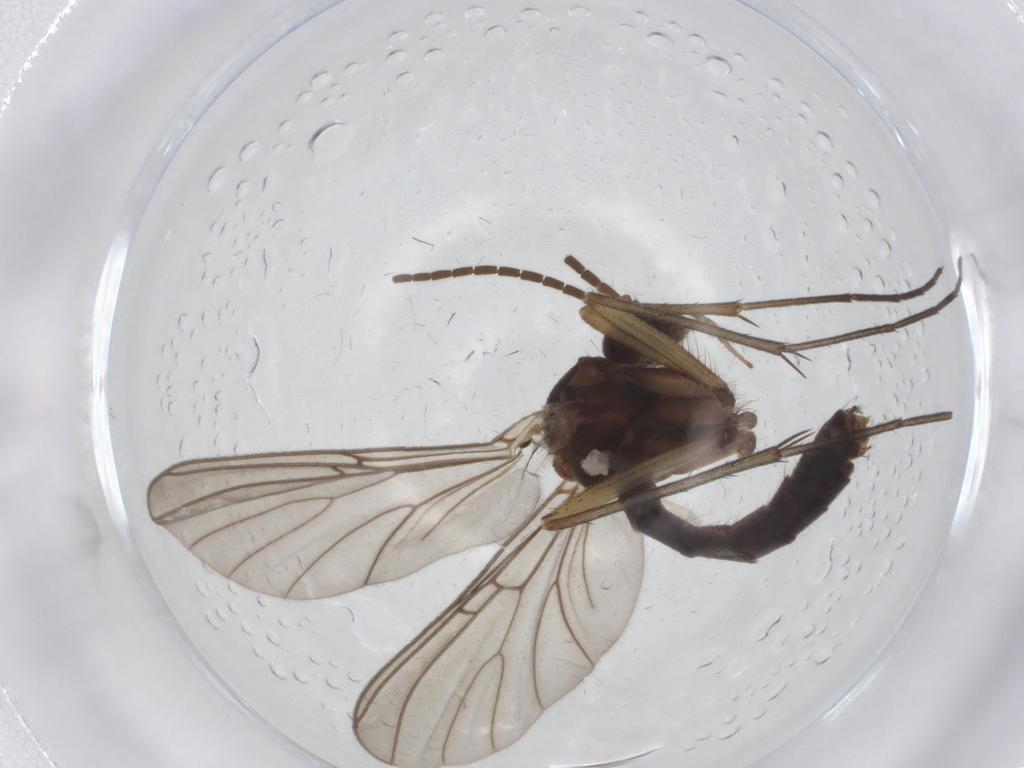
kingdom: Animalia
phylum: Arthropoda
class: Insecta
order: Diptera
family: Mycetophilidae
